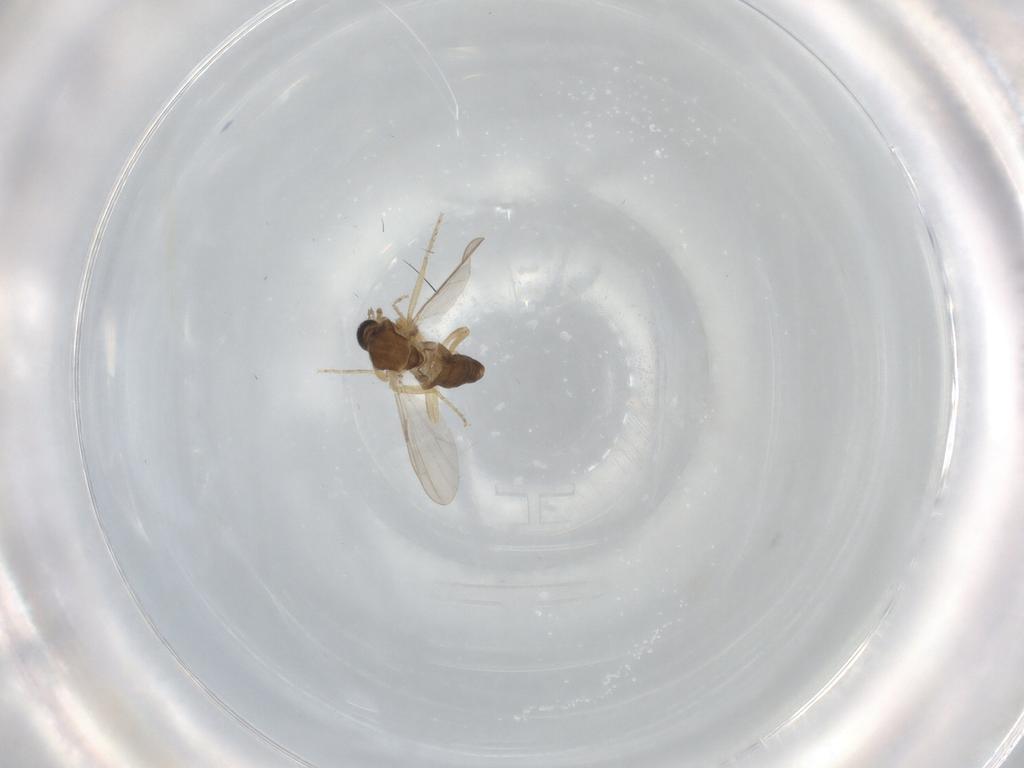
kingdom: Animalia
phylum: Arthropoda
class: Insecta
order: Diptera
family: Ceratopogonidae
